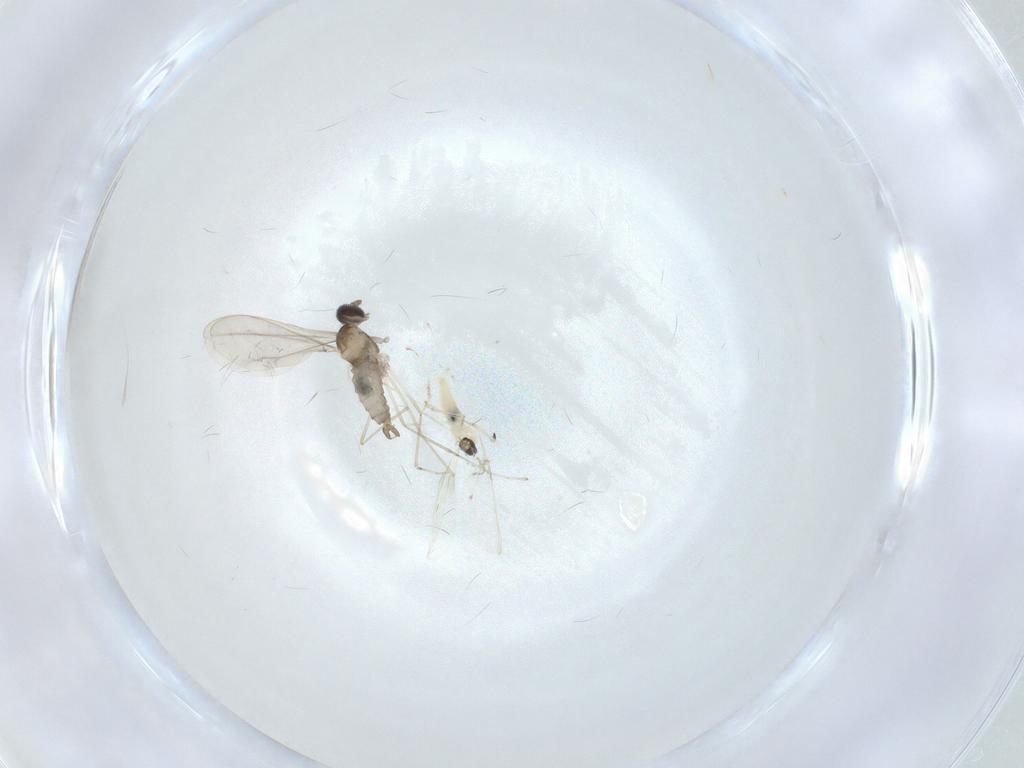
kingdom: Animalia
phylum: Arthropoda
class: Insecta
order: Diptera
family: Cecidomyiidae
